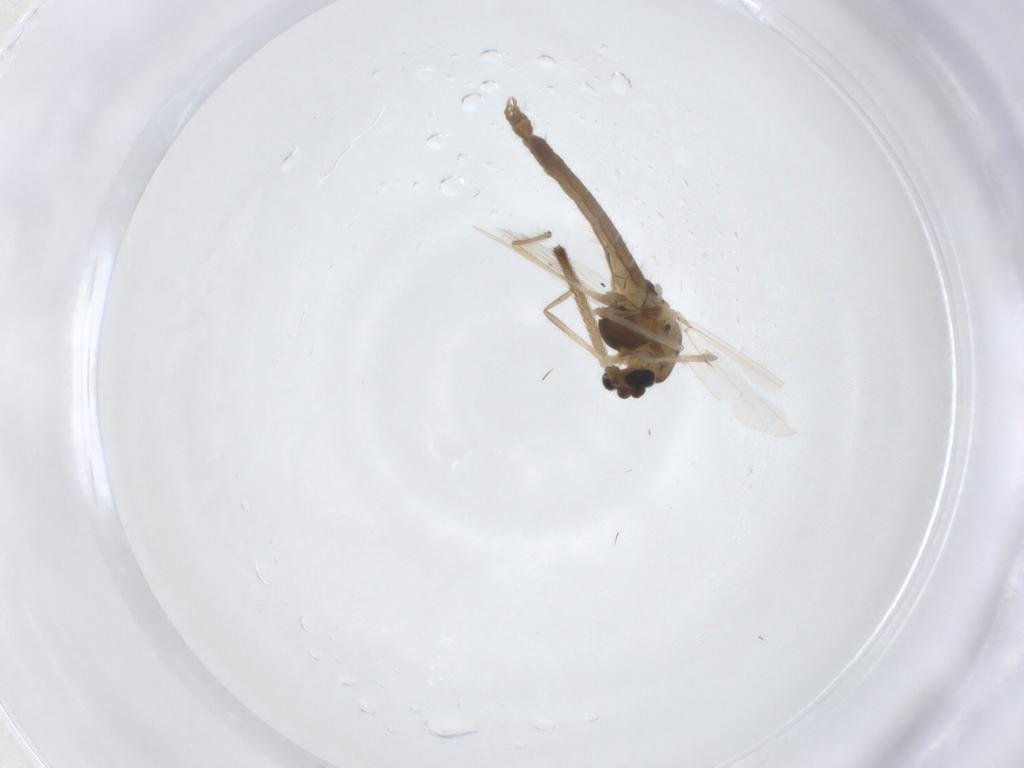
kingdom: Animalia
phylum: Arthropoda
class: Insecta
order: Diptera
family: Chironomidae
